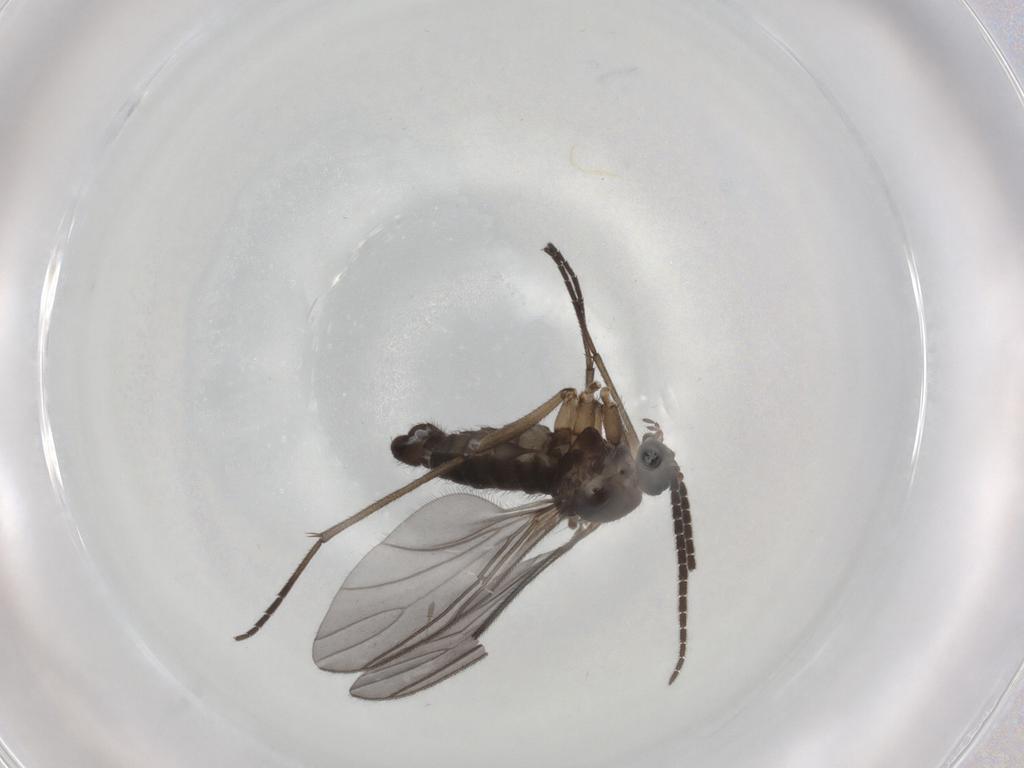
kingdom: Animalia
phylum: Arthropoda
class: Insecta
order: Diptera
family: Sciaridae
